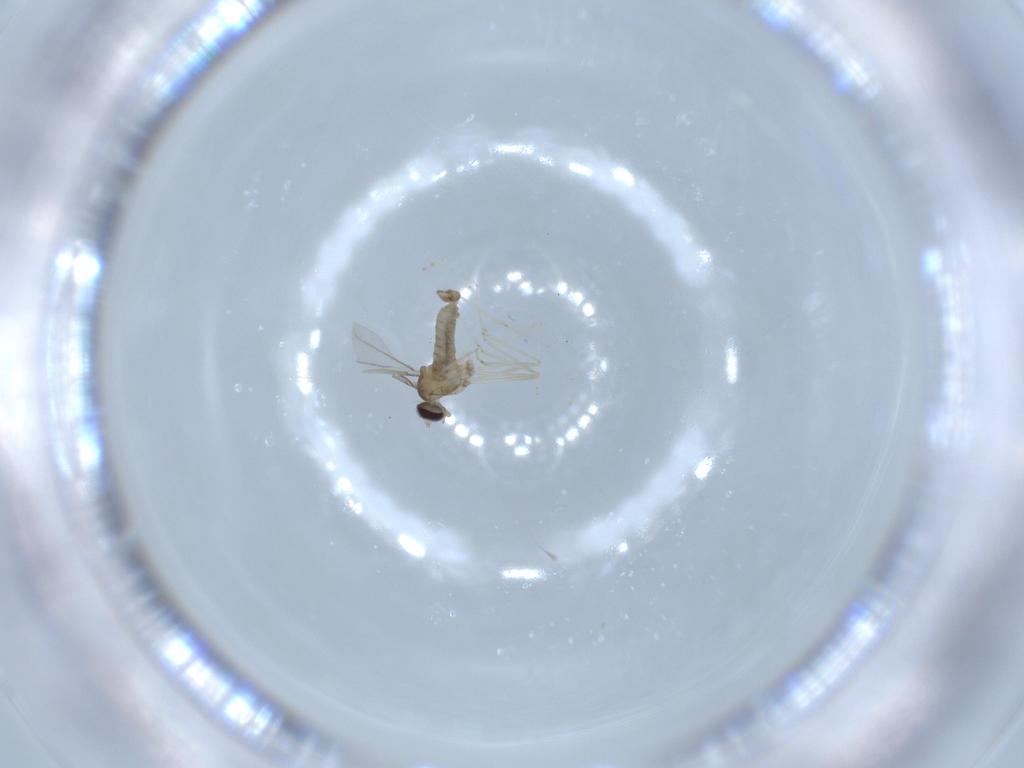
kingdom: Animalia
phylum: Arthropoda
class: Insecta
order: Diptera
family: Cecidomyiidae
